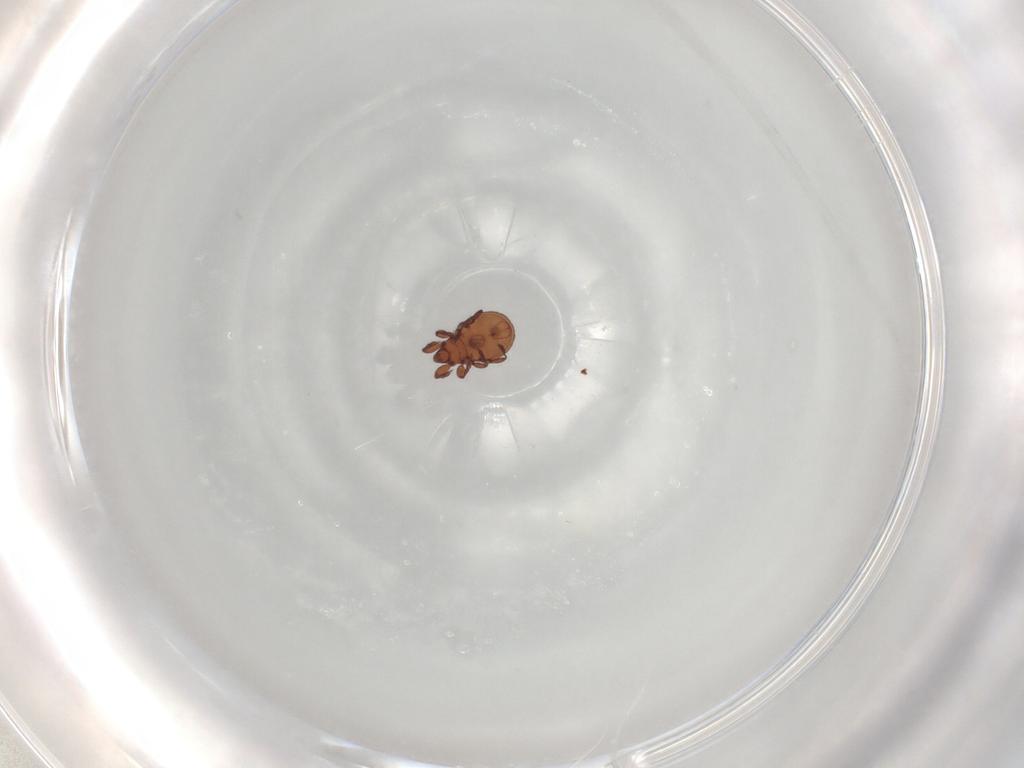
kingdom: Animalia
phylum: Arthropoda
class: Arachnida
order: Sarcoptiformes
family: Eremaeidae
